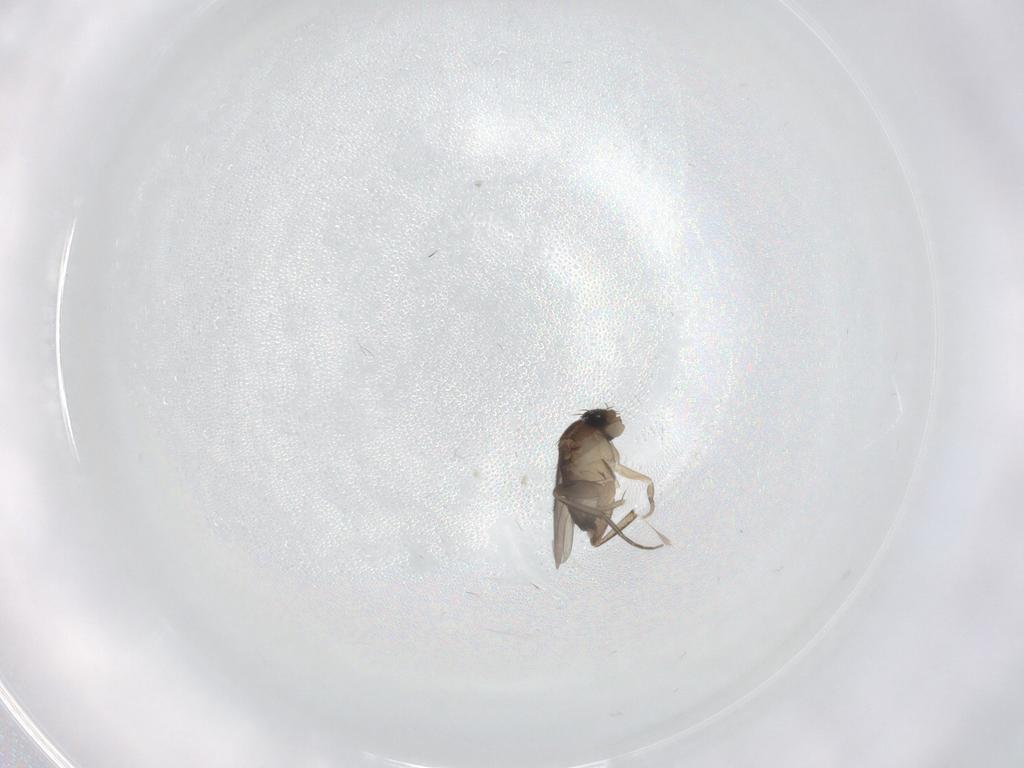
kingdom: Animalia
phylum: Arthropoda
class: Insecta
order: Diptera
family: Phoridae
